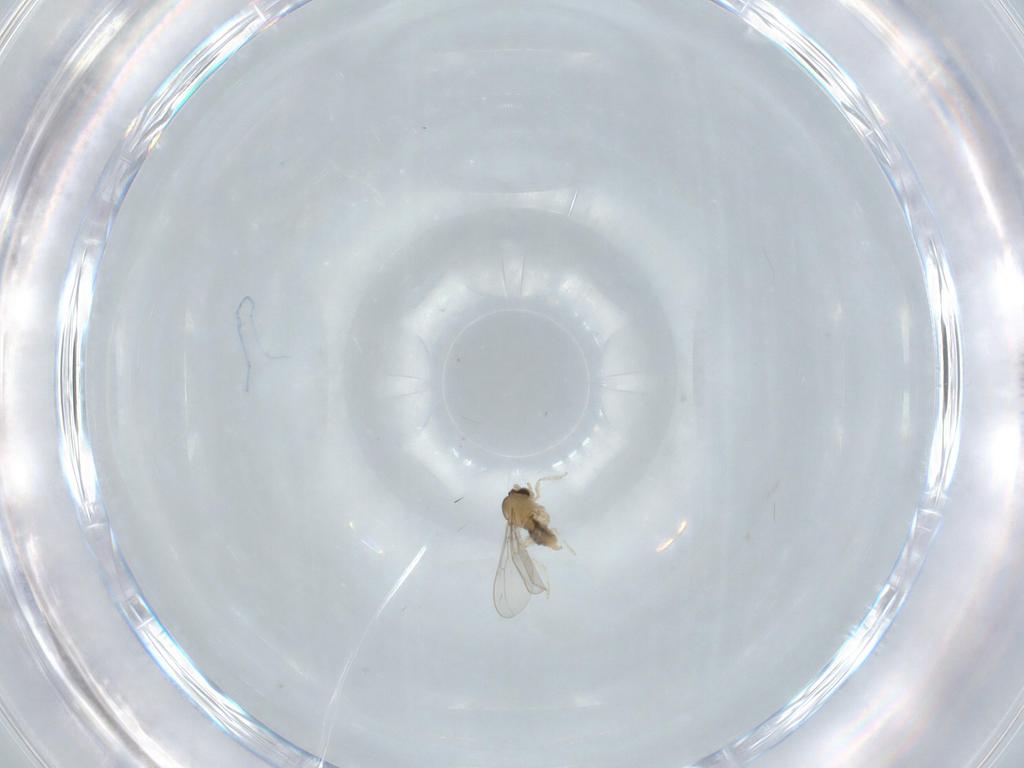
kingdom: Animalia
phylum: Arthropoda
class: Insecta
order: Diptera
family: Cecidomyiidae
